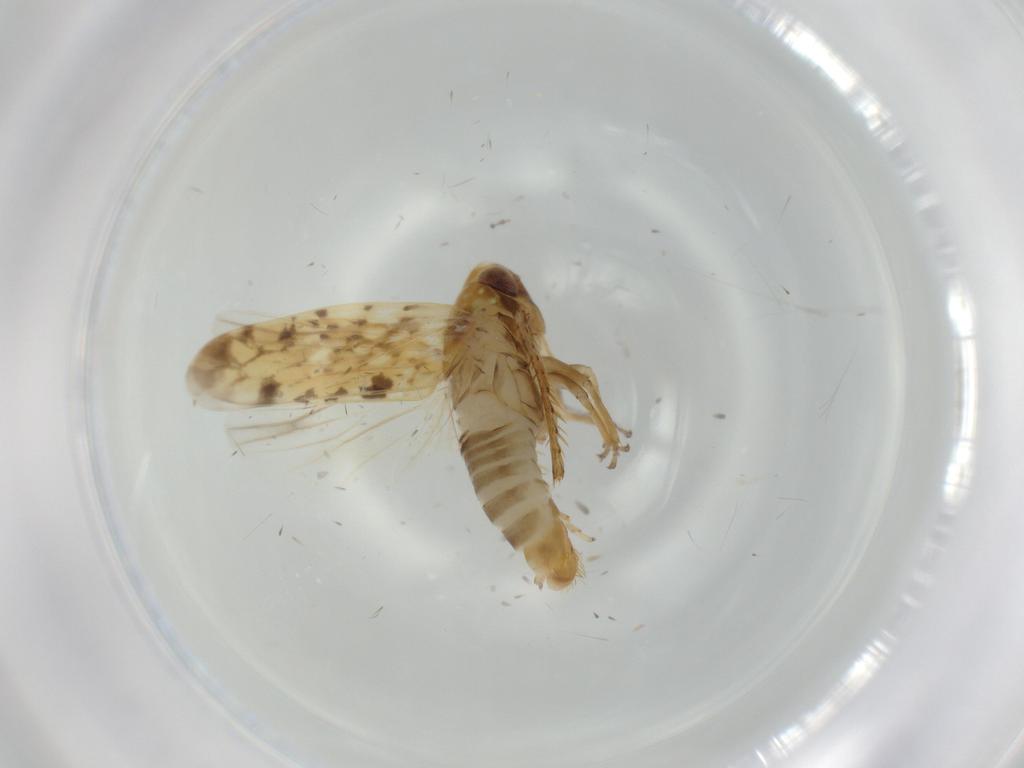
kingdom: Animalia
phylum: Arthropoda
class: Insecta
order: Hemiptera
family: Cicadellidae
